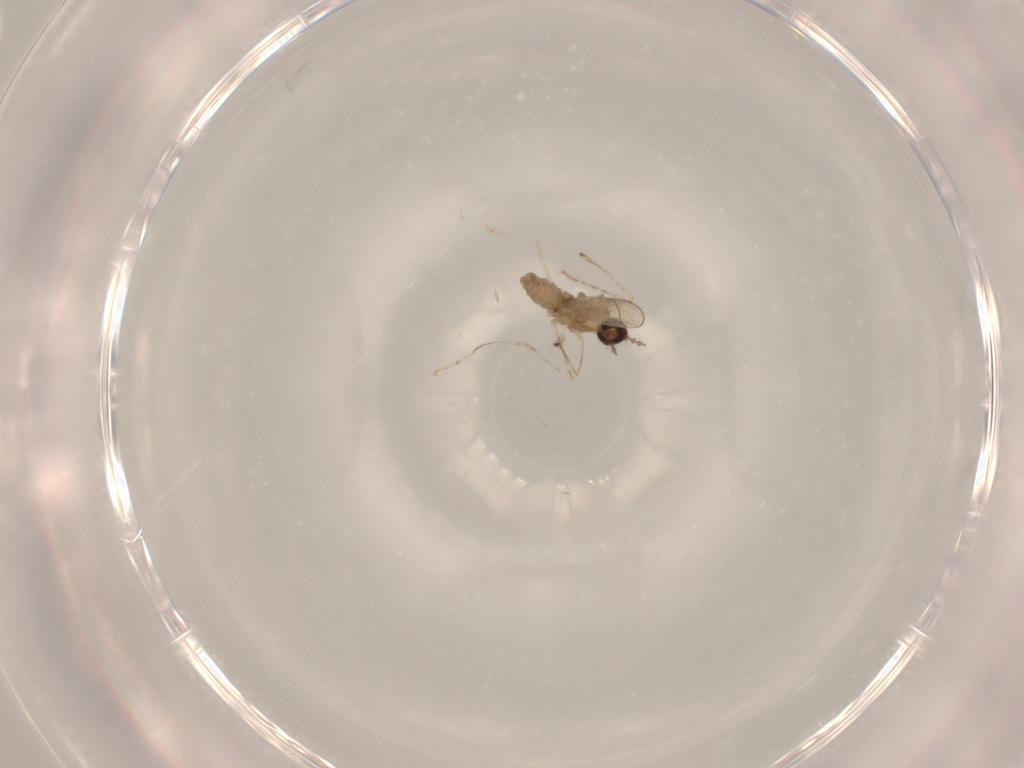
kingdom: Animalia
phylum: Arthropoda
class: Insecta
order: Diptera
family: Cecidomyiidae
